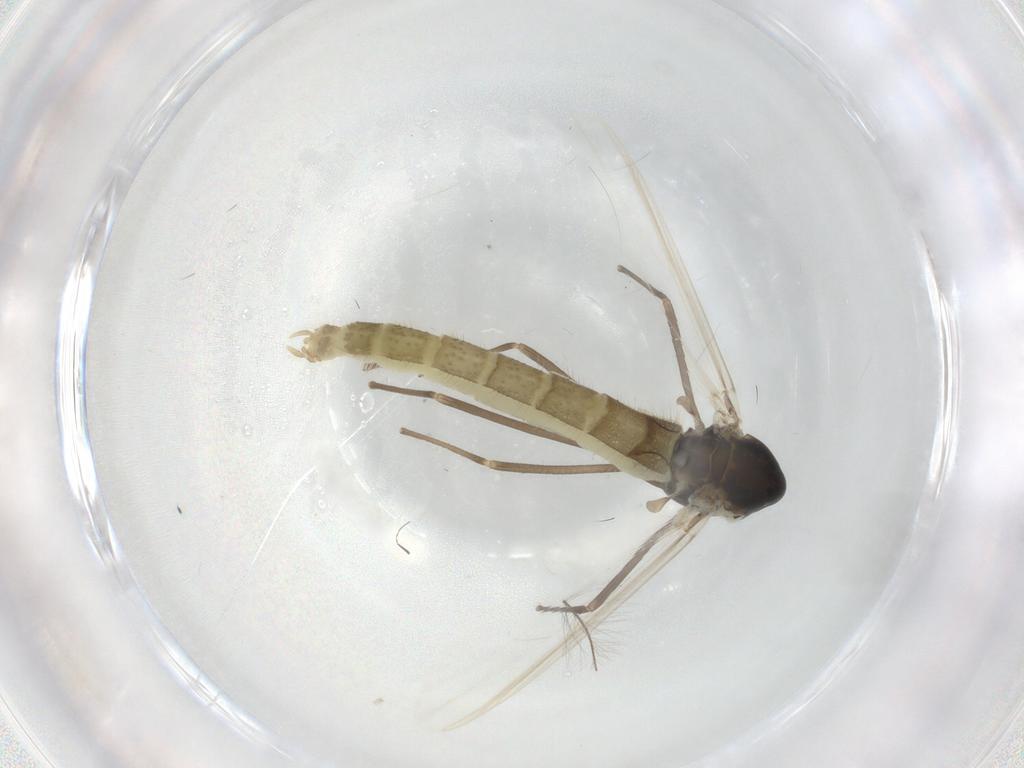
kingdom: Animalia
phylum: Arthropoda
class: Insecta
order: Diptera
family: Chironomidae
